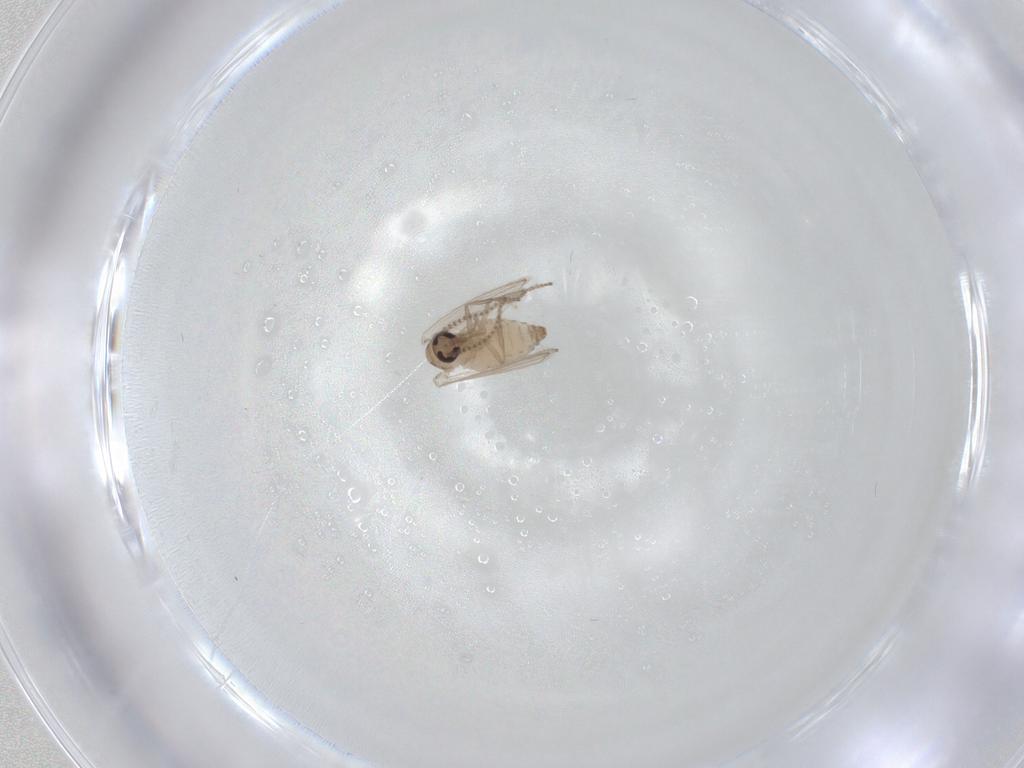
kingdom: Animalia
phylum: Arthropoda
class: Insecta
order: Diptera
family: Psychodidae
